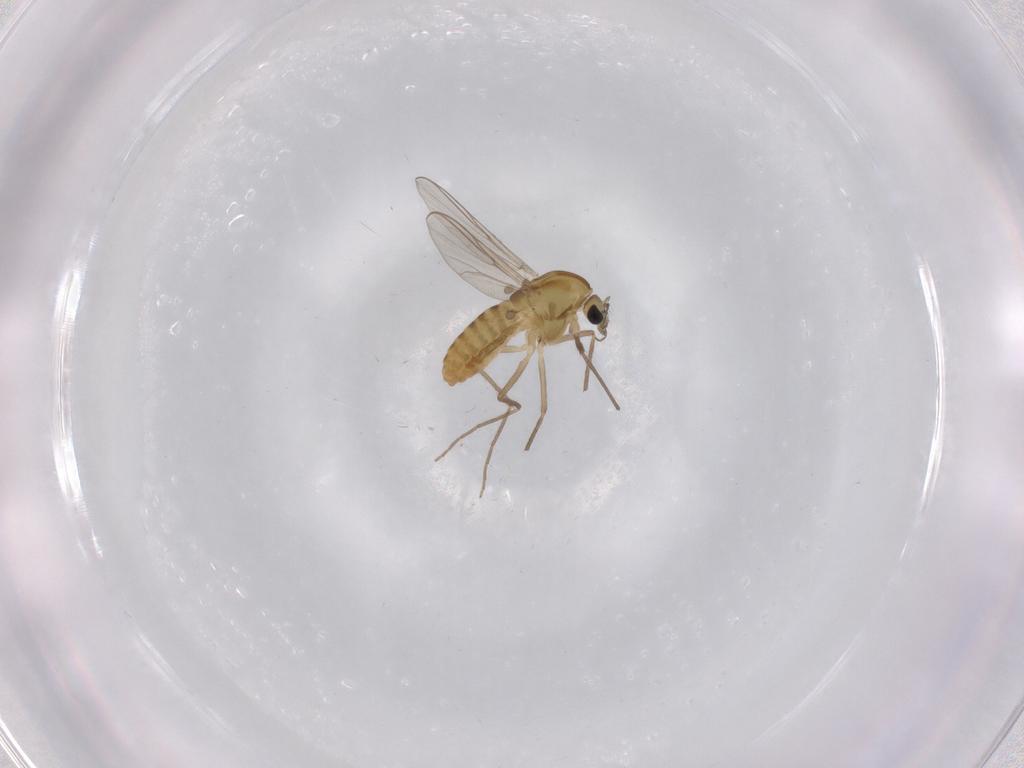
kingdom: Animalia
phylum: Arthropoda
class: Insecta
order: Diptera
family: Chironomidae
